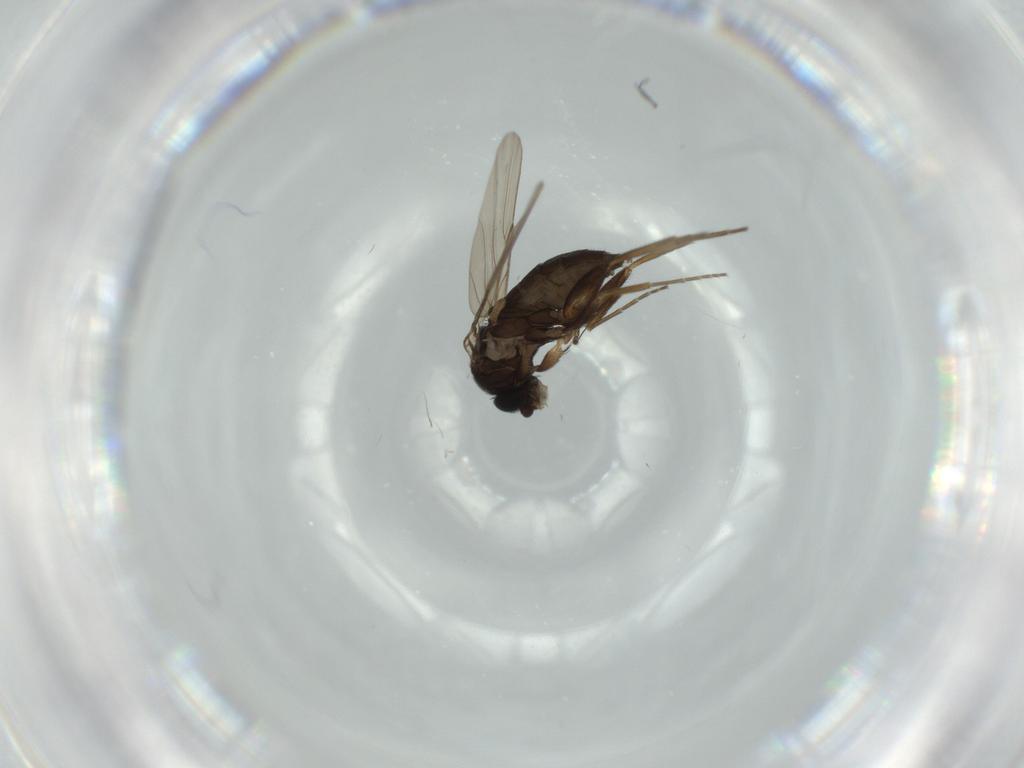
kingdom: Animalia
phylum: Arthropoda
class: Insecta
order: Diptera
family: Phoridae
